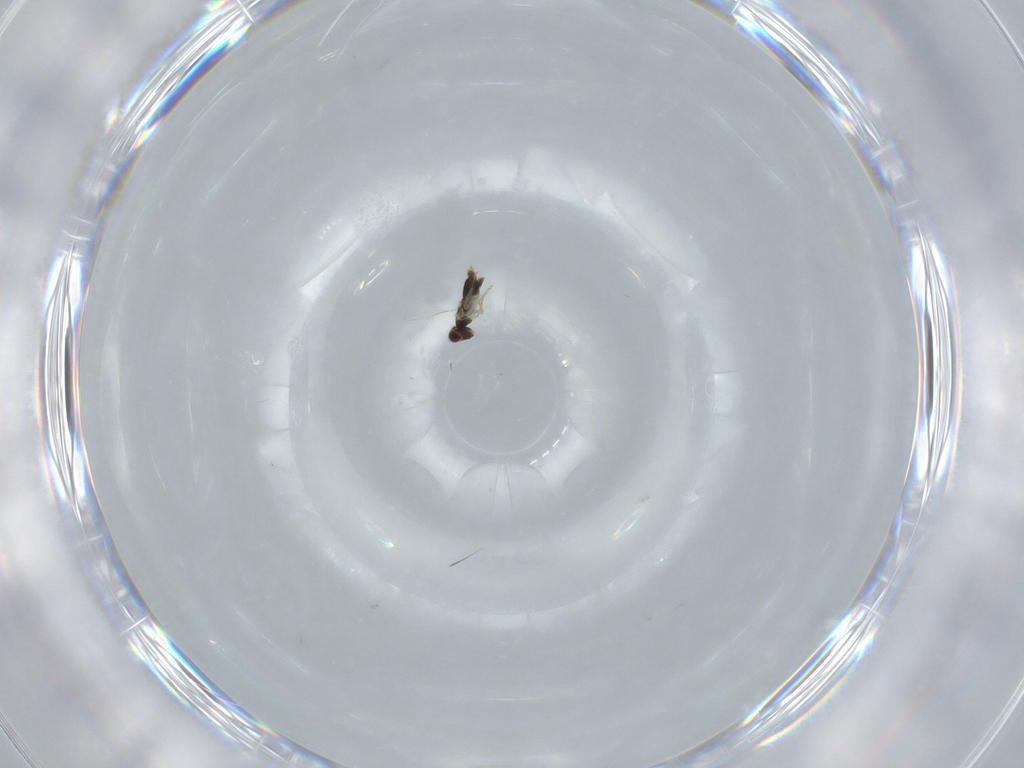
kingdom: Animalia
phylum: Arthropoda
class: Insecta
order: Hymenoptera
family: Aphelinidae
